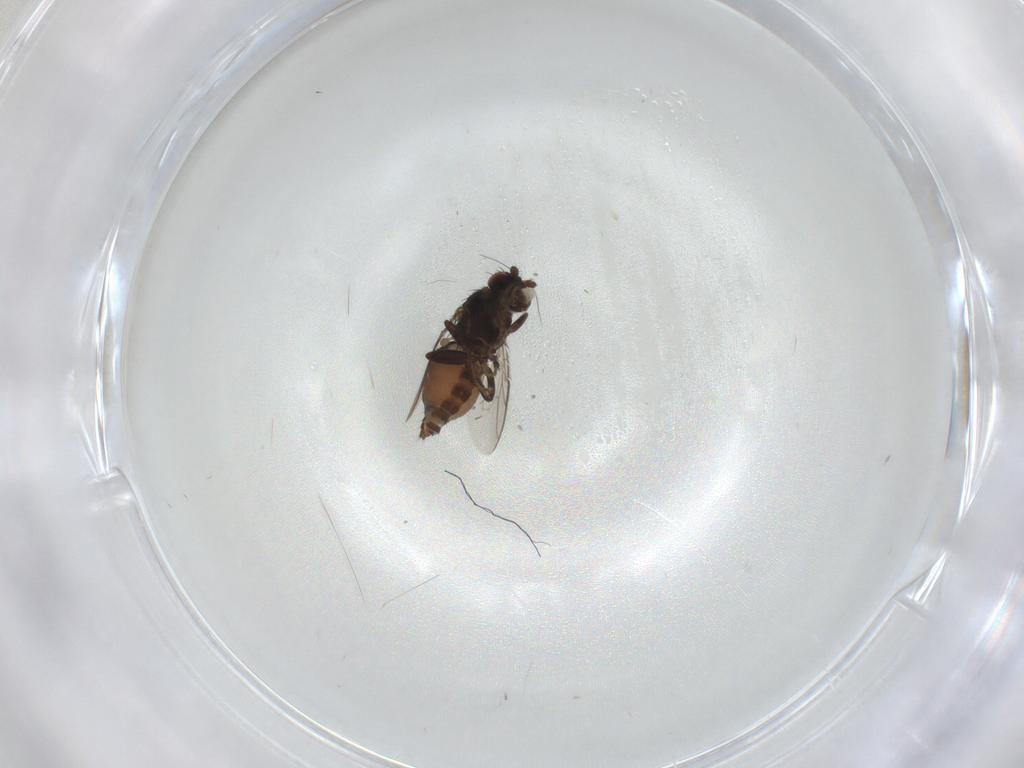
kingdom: Animalia
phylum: Arthropoda
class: Insecta
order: Diptera
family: Sphaeroceridae
